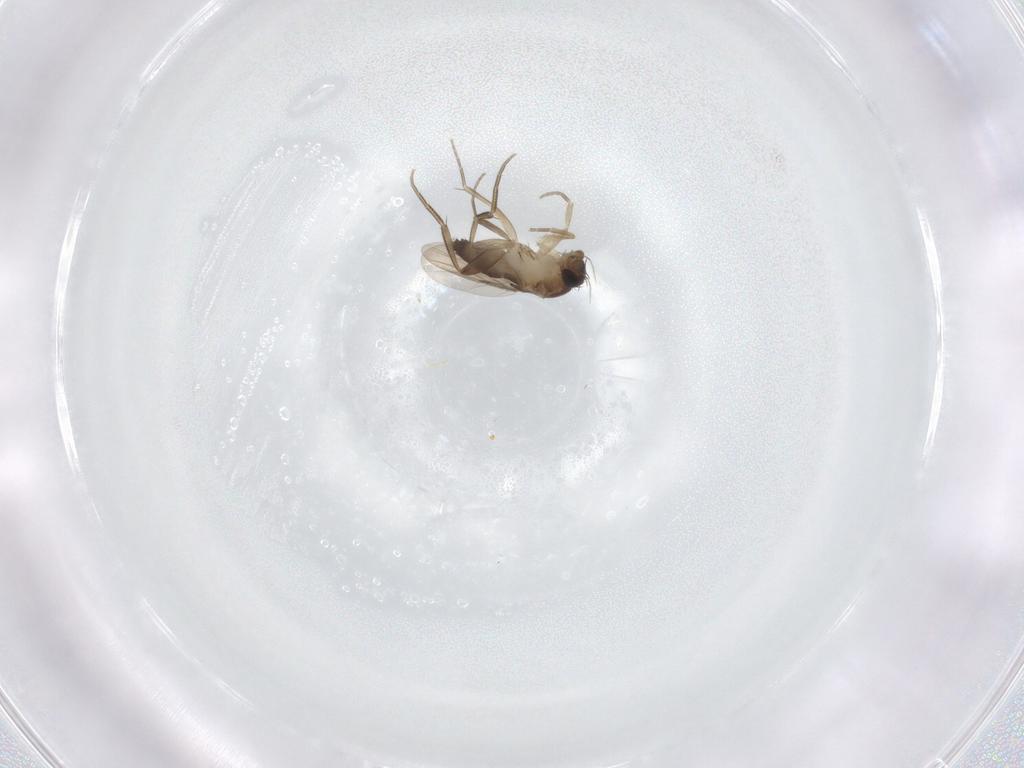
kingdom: Animalia
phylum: Arthropoda
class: Insecta
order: Diptera
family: Phoridae
